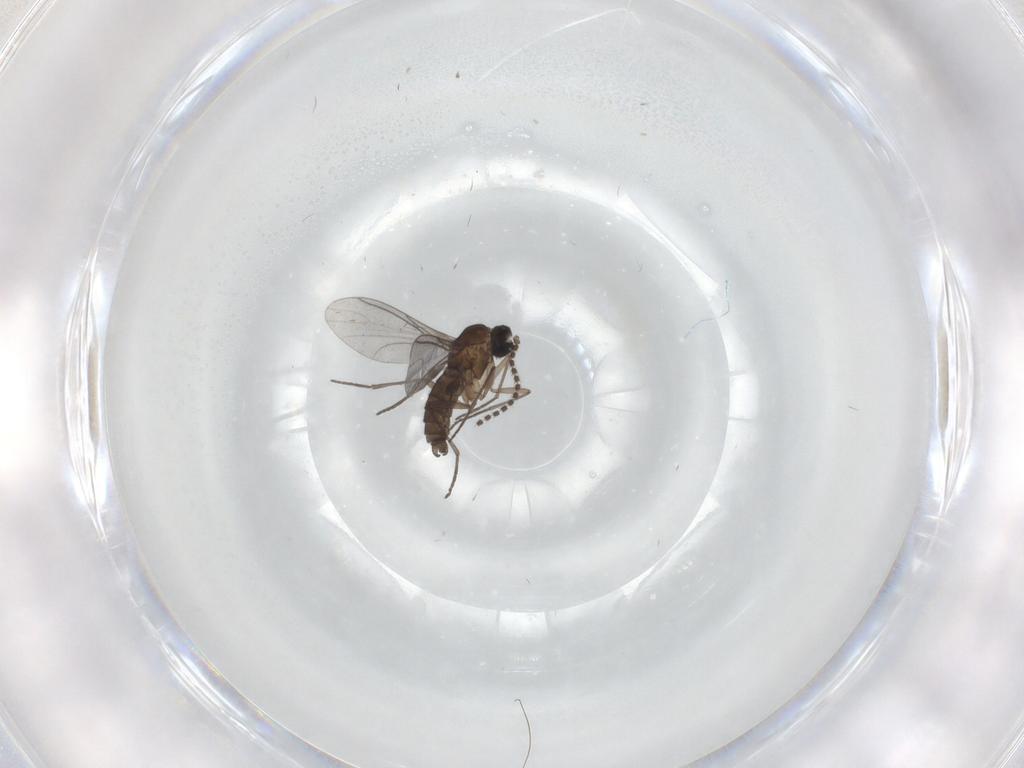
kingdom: Animalia
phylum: Arthropoda
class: Insecta
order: Diptera
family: Sciaridae
